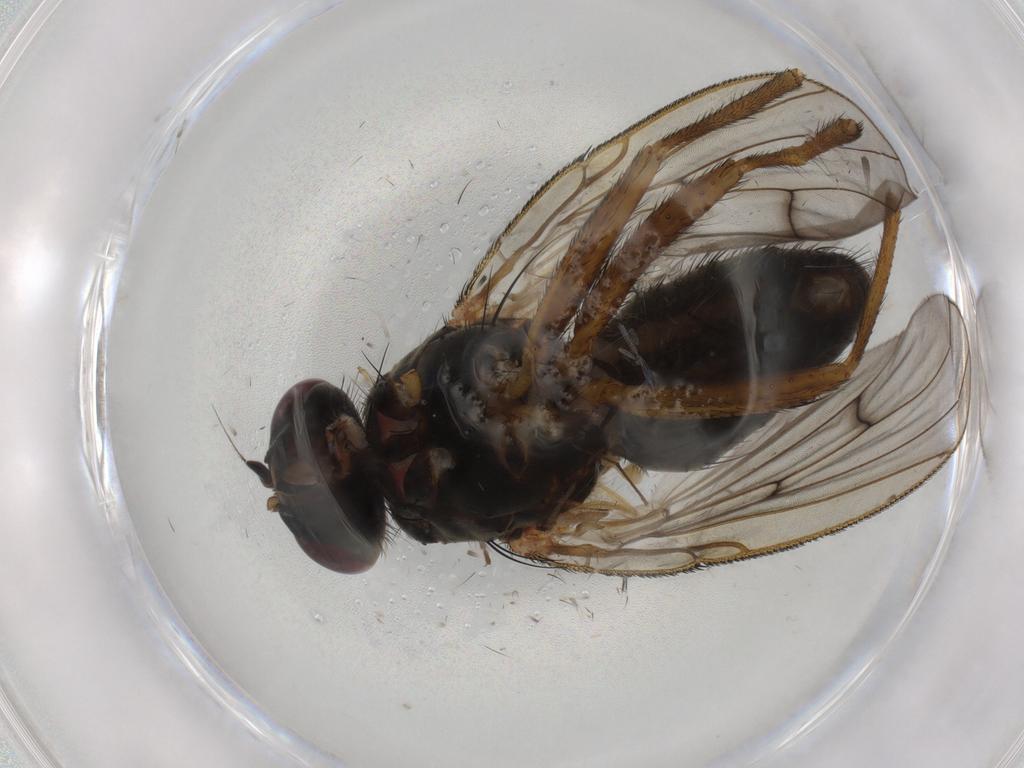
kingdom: Animalia
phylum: Arthropoda
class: Insecta
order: Diptera
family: Muscidae
